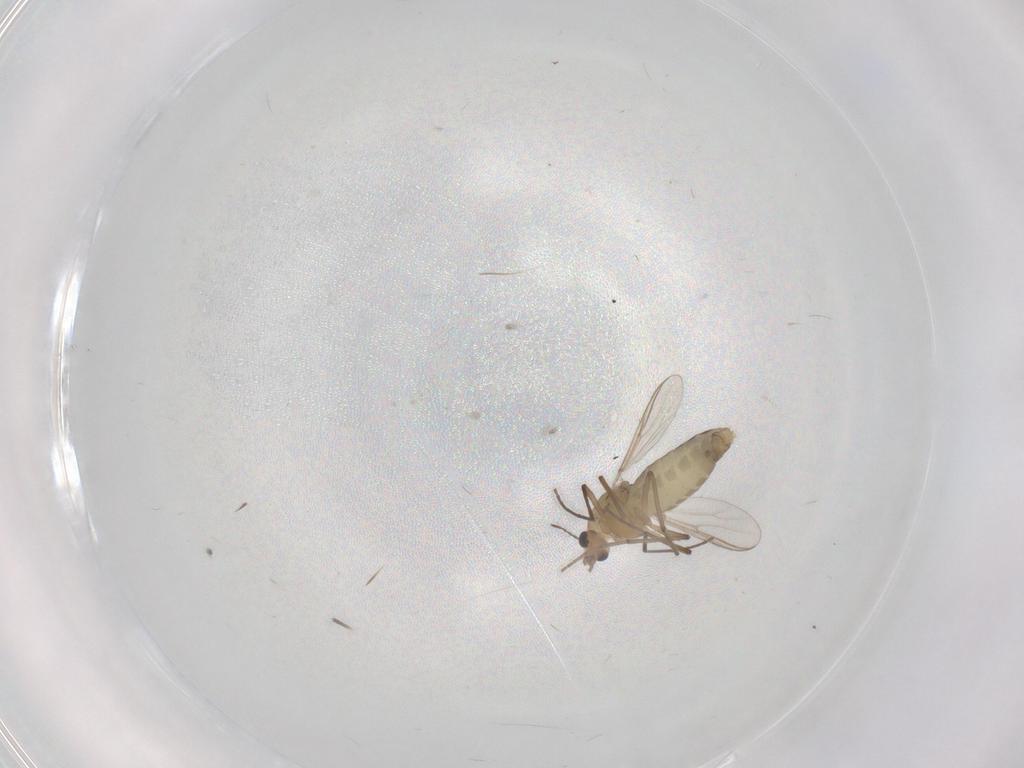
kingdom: Animalia
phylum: Arthropoda
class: Insecta
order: Diptera
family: Chironomidae
